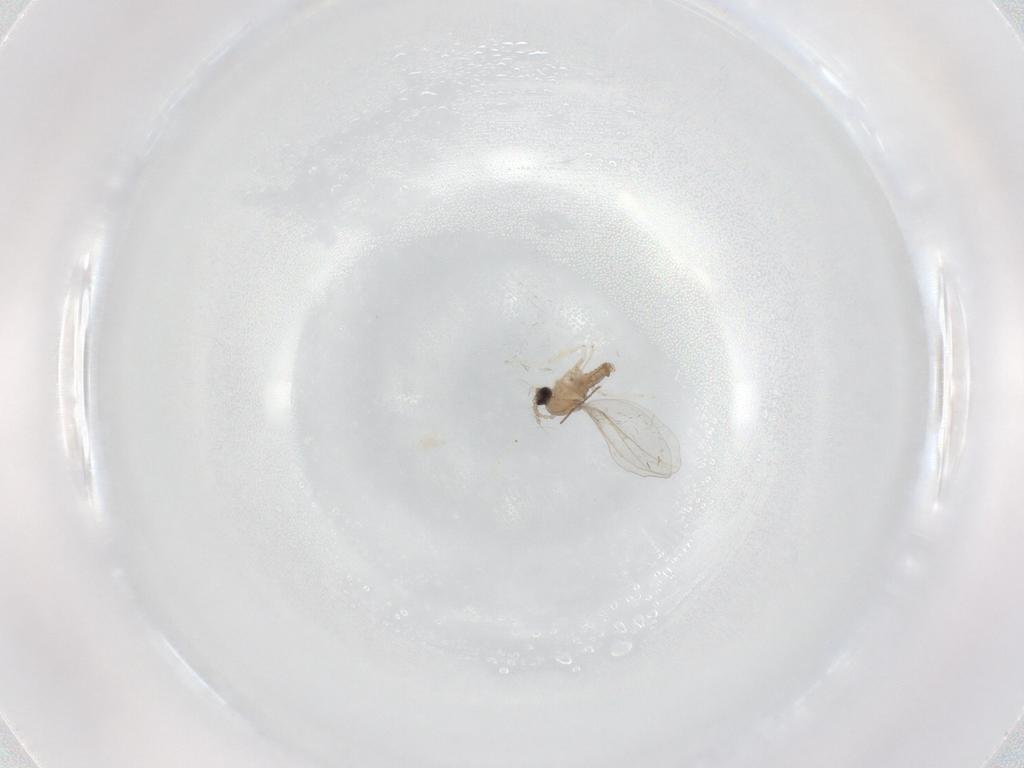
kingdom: Animalia
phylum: Arthropoda
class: Insecta
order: Diptera
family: Cecidomyiidae
